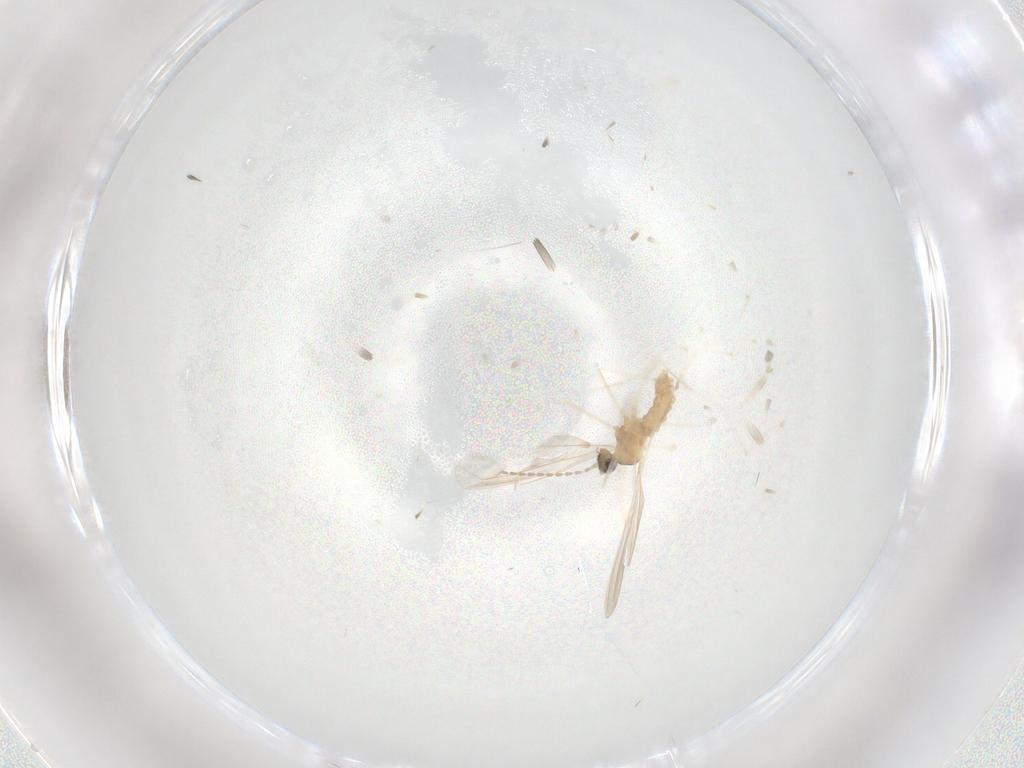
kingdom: Animalia
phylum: Arthropoda
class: Insecta
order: Diptera
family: Cecidomyiidae
